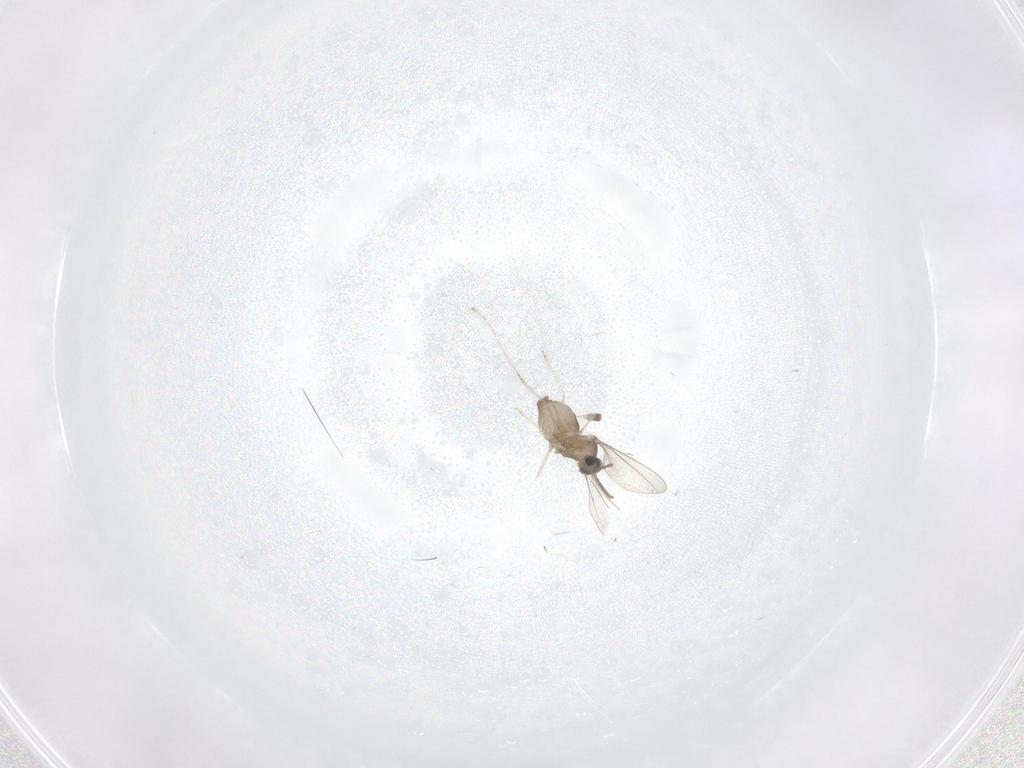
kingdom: Animalia
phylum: Arthropoda
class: Insecta
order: Diptera
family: Cecidomyiidae
